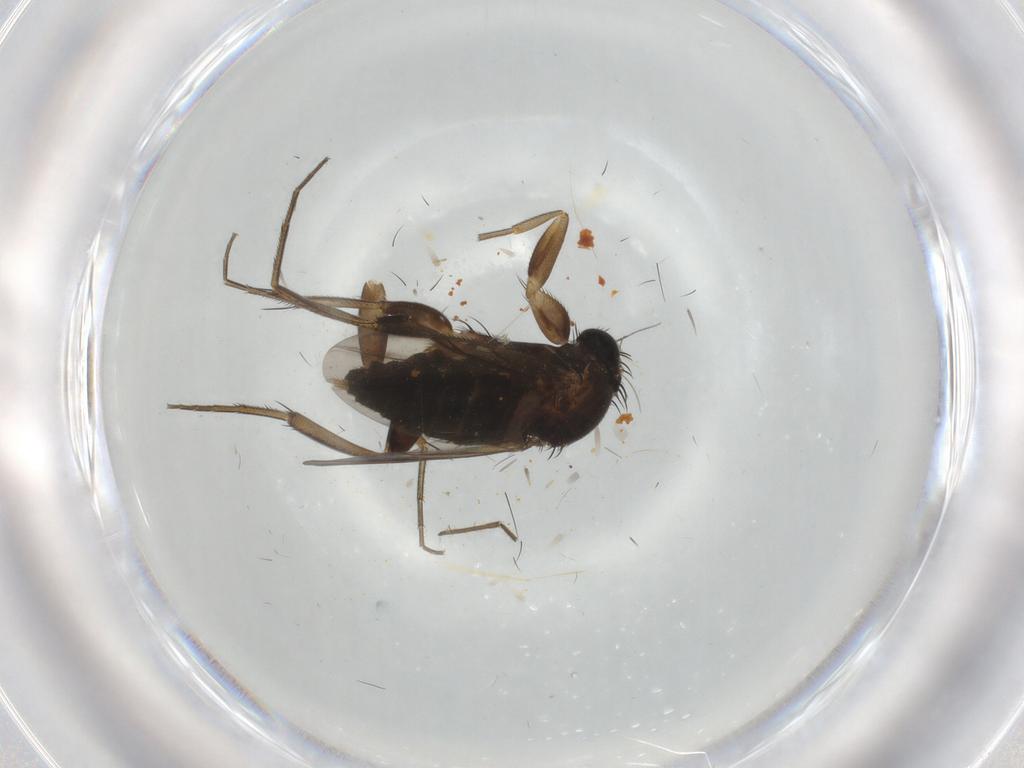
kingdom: Animalia
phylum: Arthropoda
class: Insecta
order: Diptera
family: Phoridae
